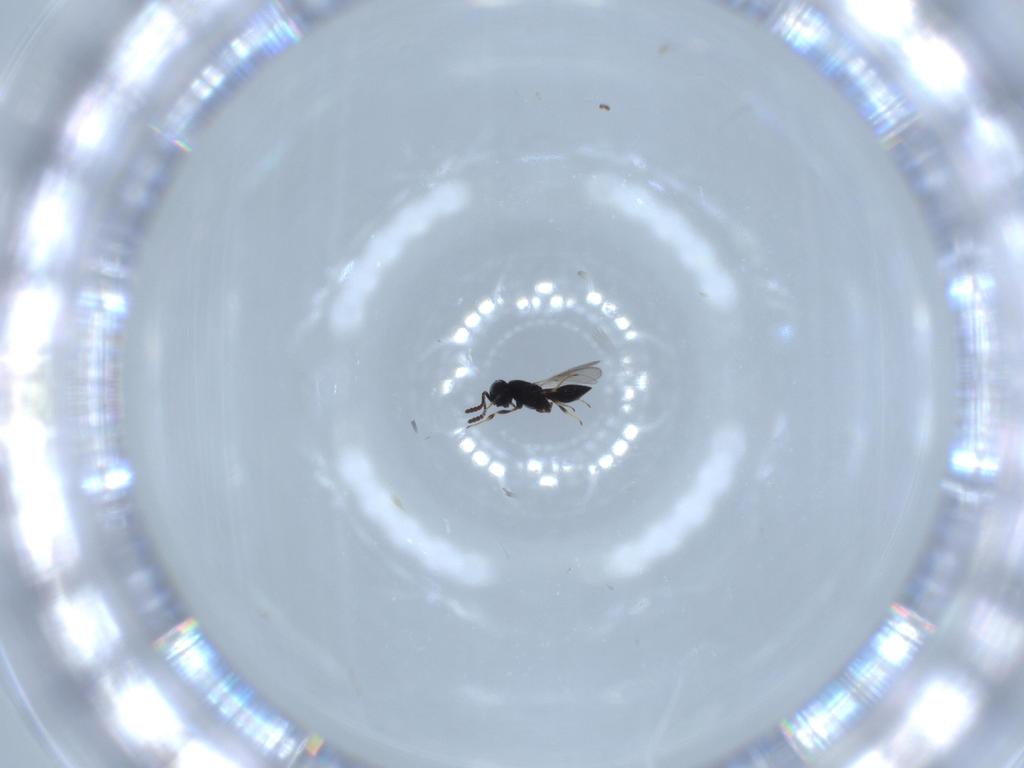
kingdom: Animalia
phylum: Arthropoda
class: Insecta
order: Hymenoptera
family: Scelionidae
